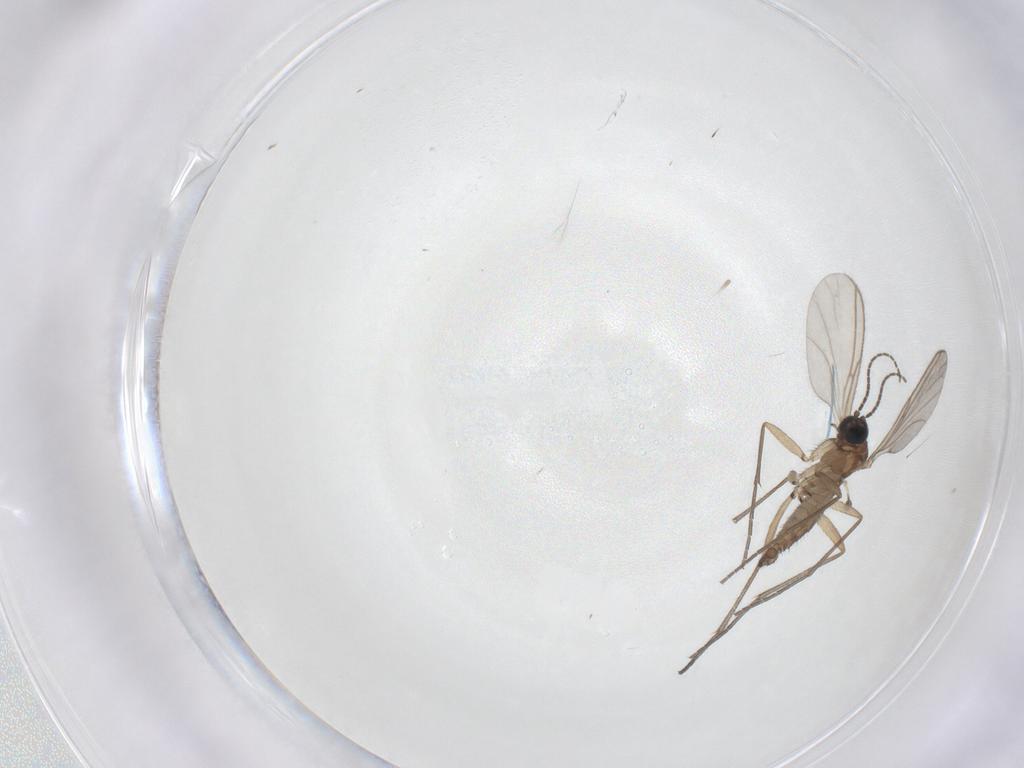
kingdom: Animalia
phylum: Arthropoda
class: Insecta
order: Diptera
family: Sciaridae
